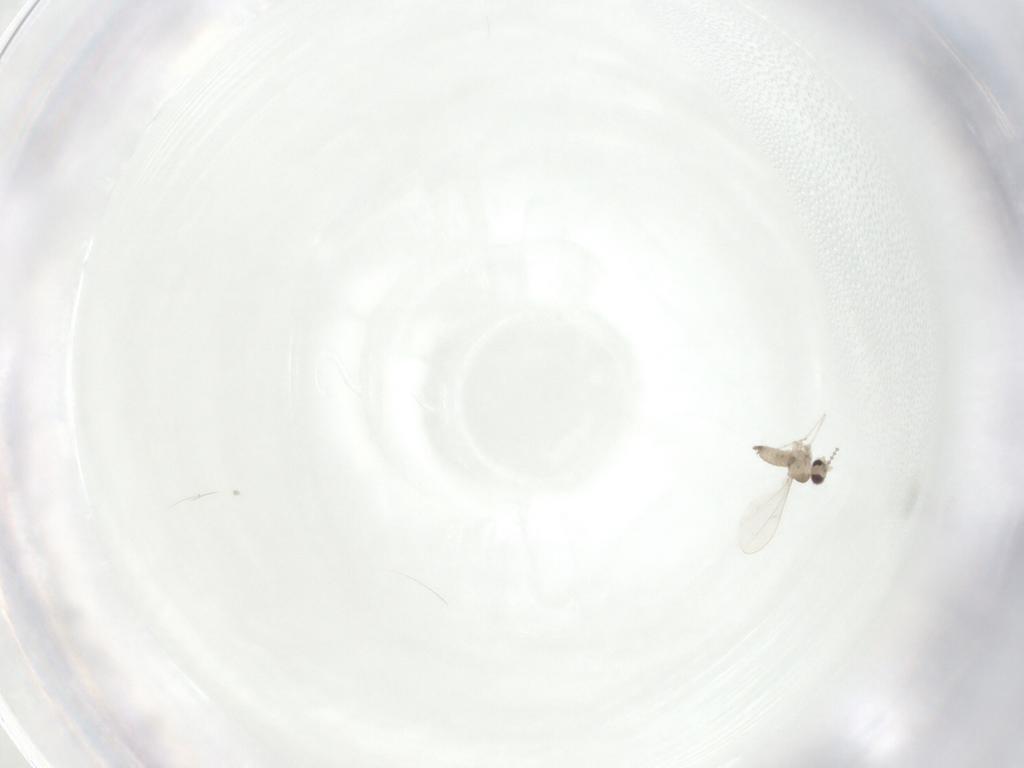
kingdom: Animalia
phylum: Arthropoda
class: Insecta
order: Diptera
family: Cecidomyiidae
